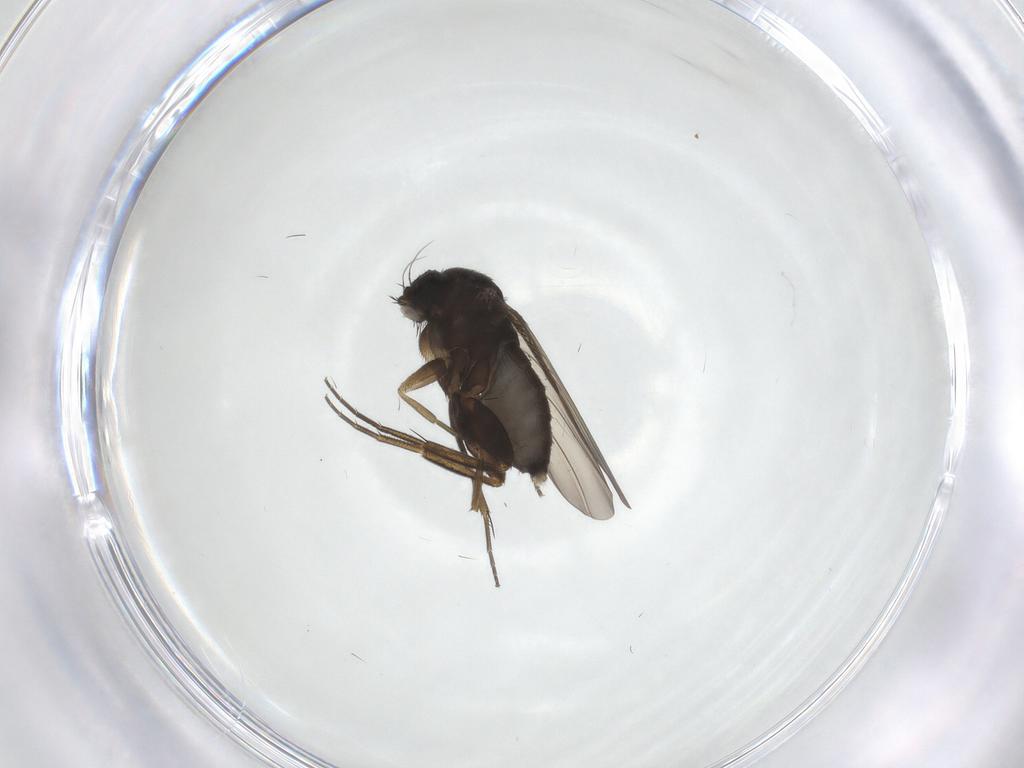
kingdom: Animalia
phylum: Arthropoda
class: Insecta
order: Diptera
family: Phoridae
